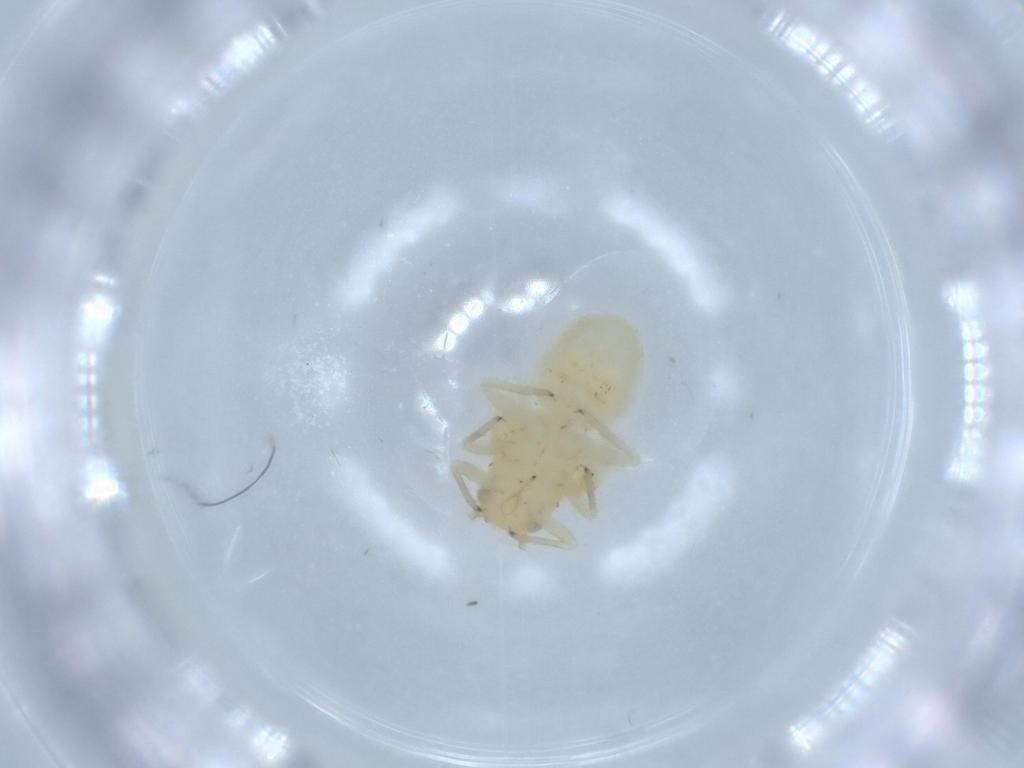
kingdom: Animalia
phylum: Arthropoda
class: Insecta
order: Hemiptera
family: Psyllidae
